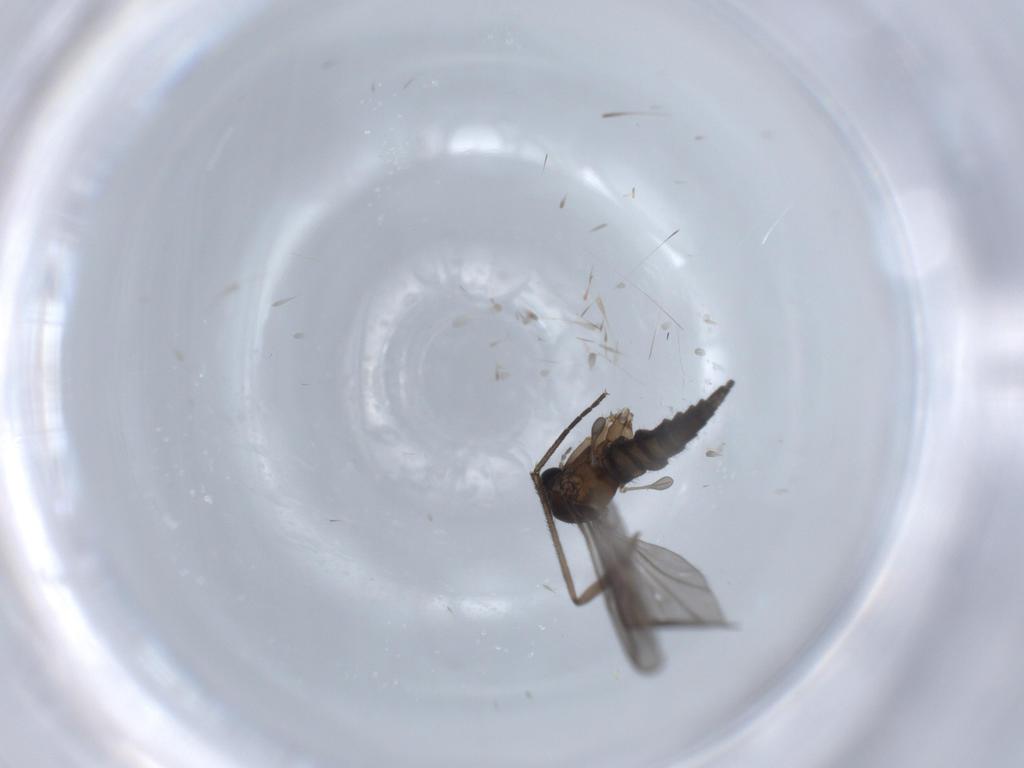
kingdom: Animalia
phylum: Arthropoda
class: Insecta
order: Diptera
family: Sciaridae
